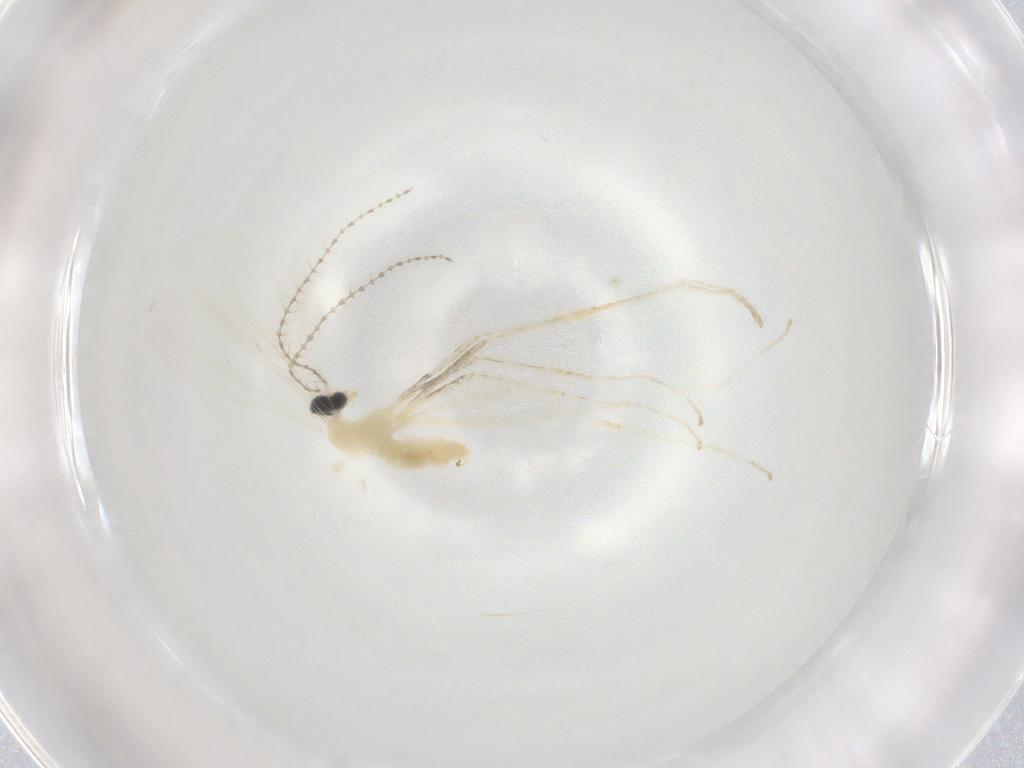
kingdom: Animalia
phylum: Arthropoda
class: Insecta
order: Diptera
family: Cecidomyiidae
